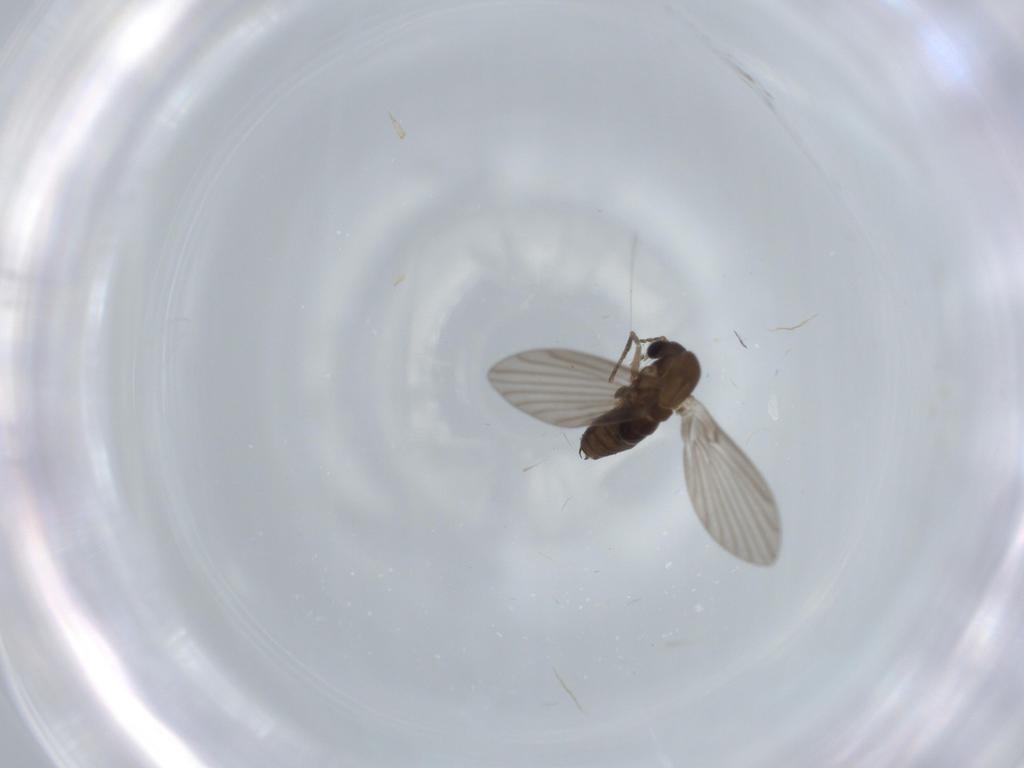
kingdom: Animalia
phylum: Arthropoda
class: Insecta
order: Diptera
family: Psychodidae
